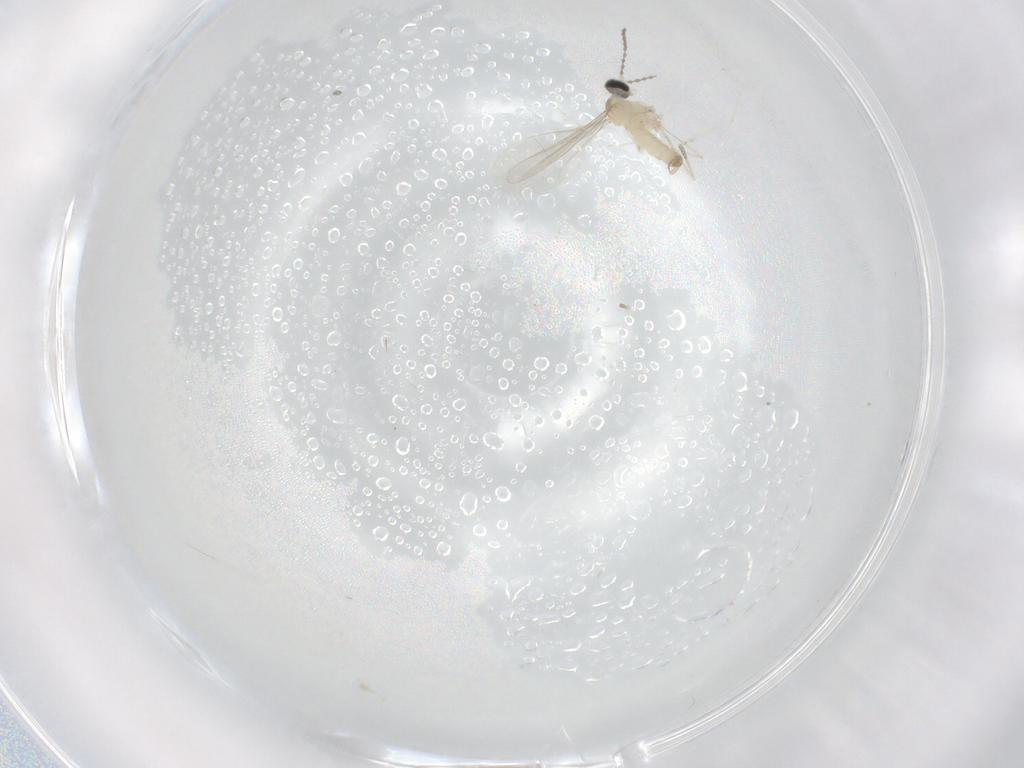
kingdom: Animalia
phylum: Arthropoda
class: Insecta
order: Diptera
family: Cecidomyiidae
